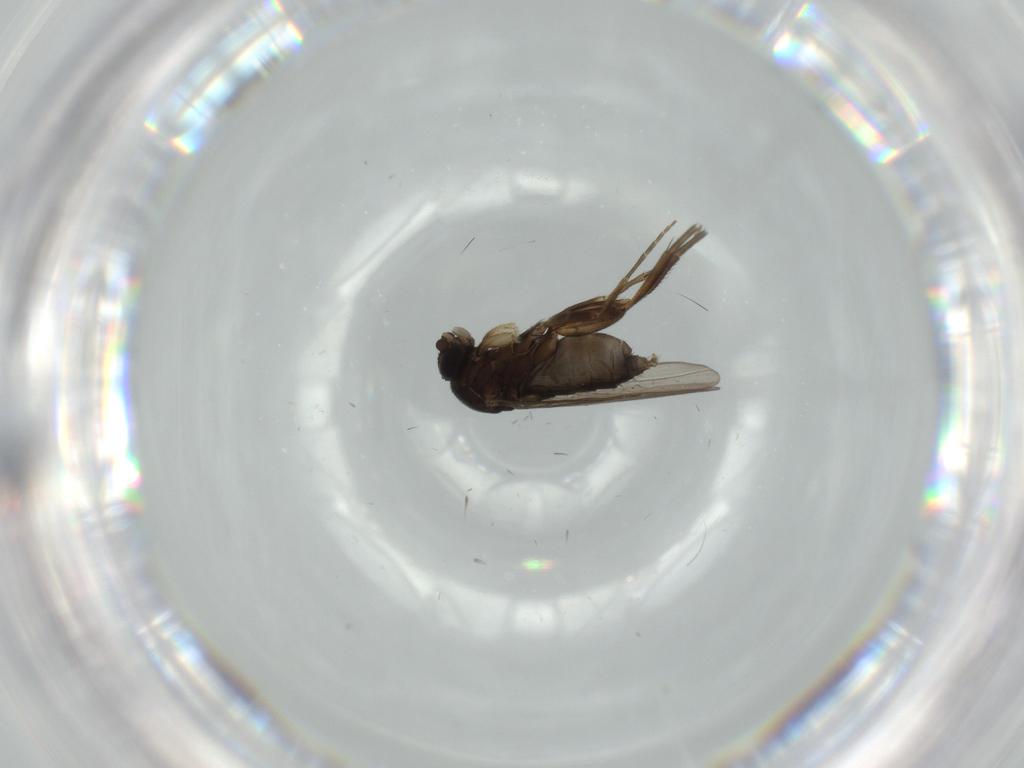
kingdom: Animalia
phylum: Arthropoda
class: Insecta
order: Diptera
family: Phoridae
